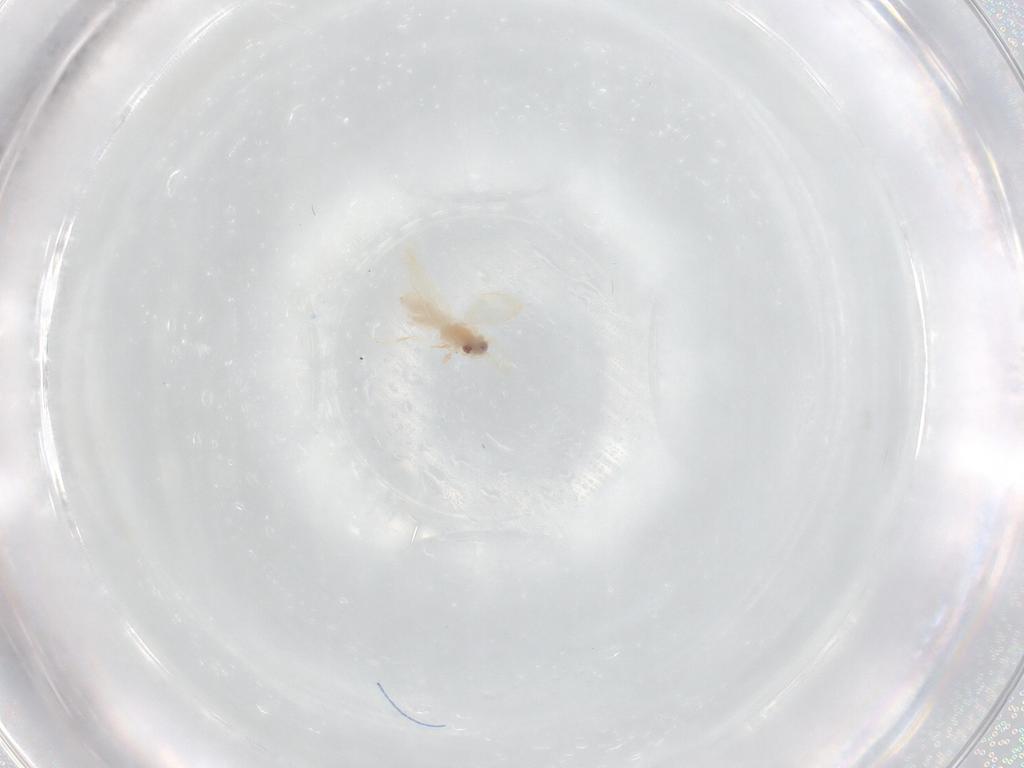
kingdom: Animalia
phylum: Arthropoda
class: Insecta
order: Hemiptera
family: Aleyrodidae
